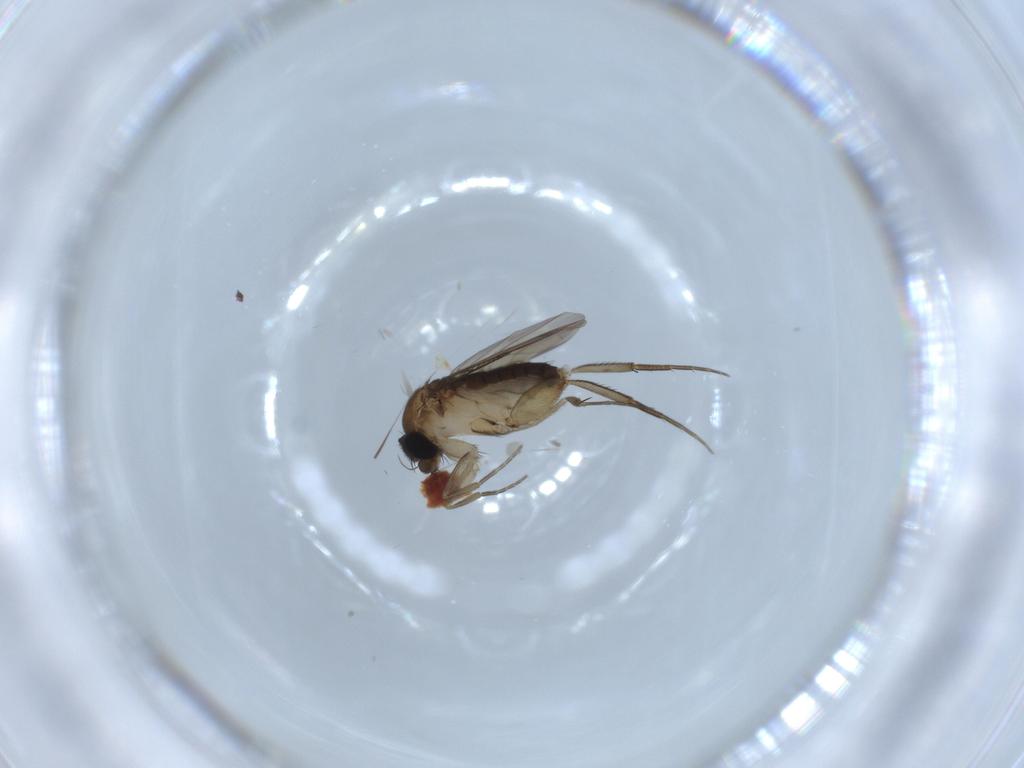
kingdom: Animalia
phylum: Arthropoda
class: Insecta
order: Diptera
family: Phoridae
